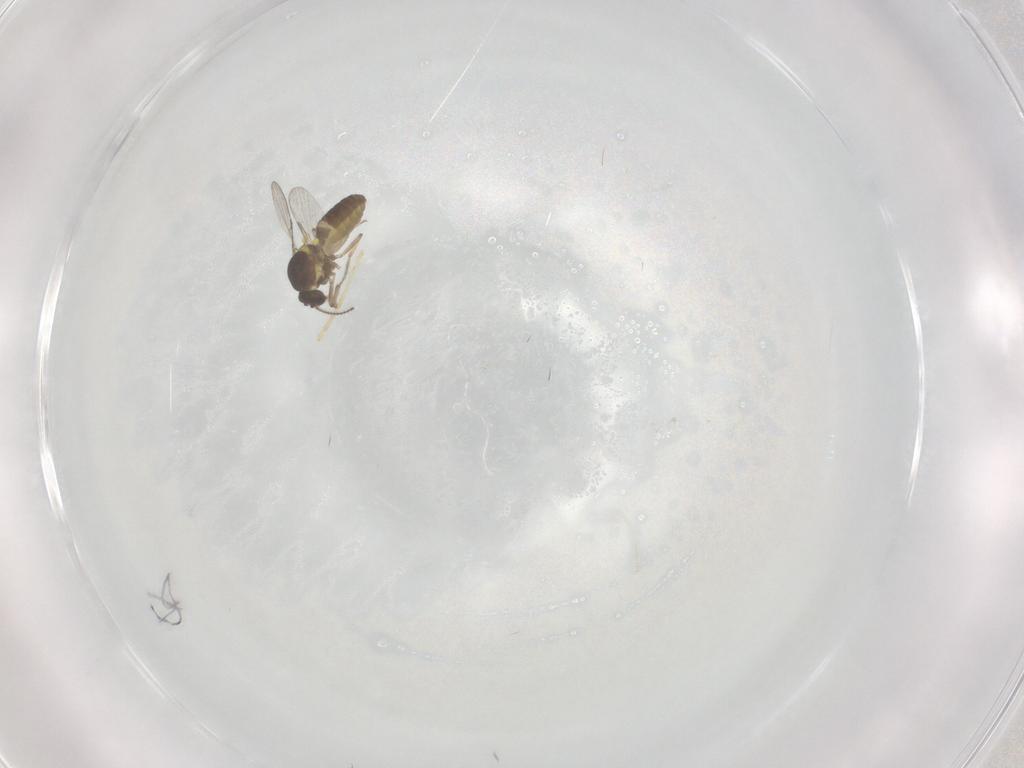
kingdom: Animalia
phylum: Arthropoda
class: Insecta
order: Diptera
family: Ceratopogonidae
